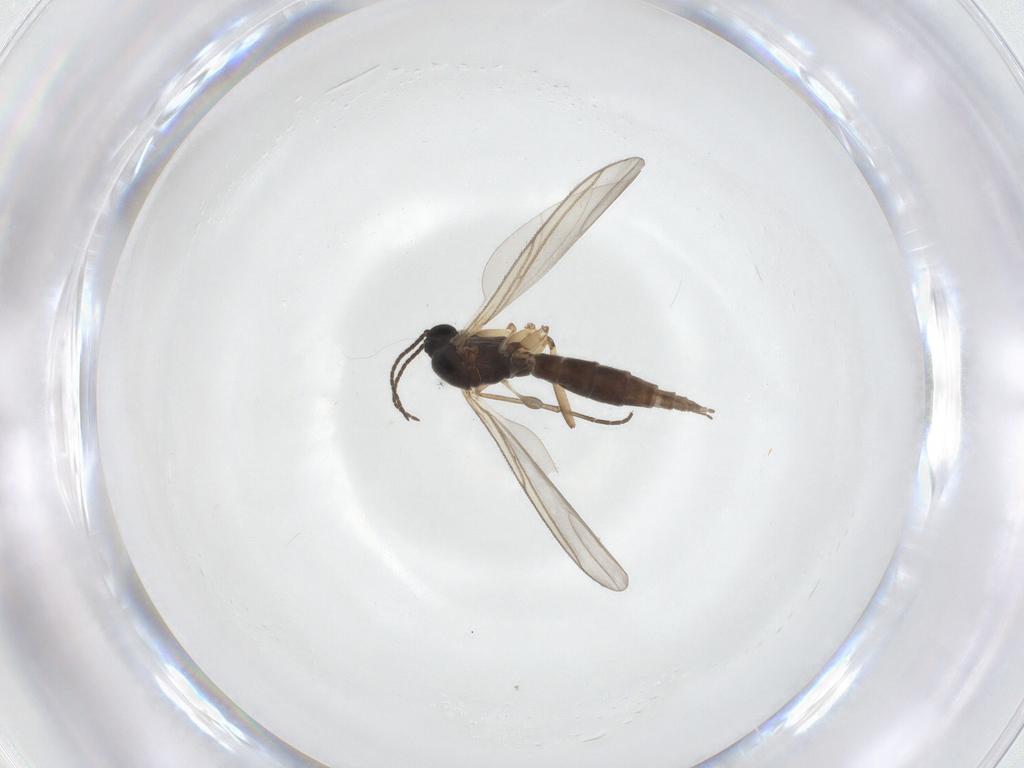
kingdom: Animalia
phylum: Arthropoda
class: Insecta
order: Diptera
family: Sciaridae
